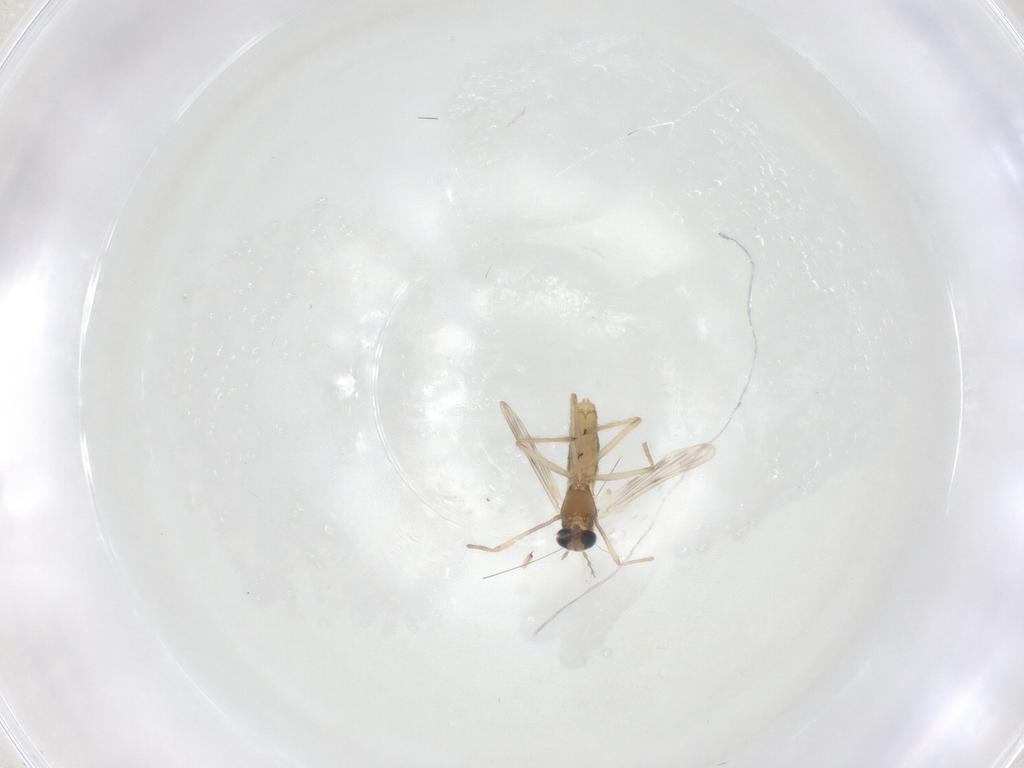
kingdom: Animalia
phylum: Arthropoda
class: Insecta
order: Diptera
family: Chironomidae
